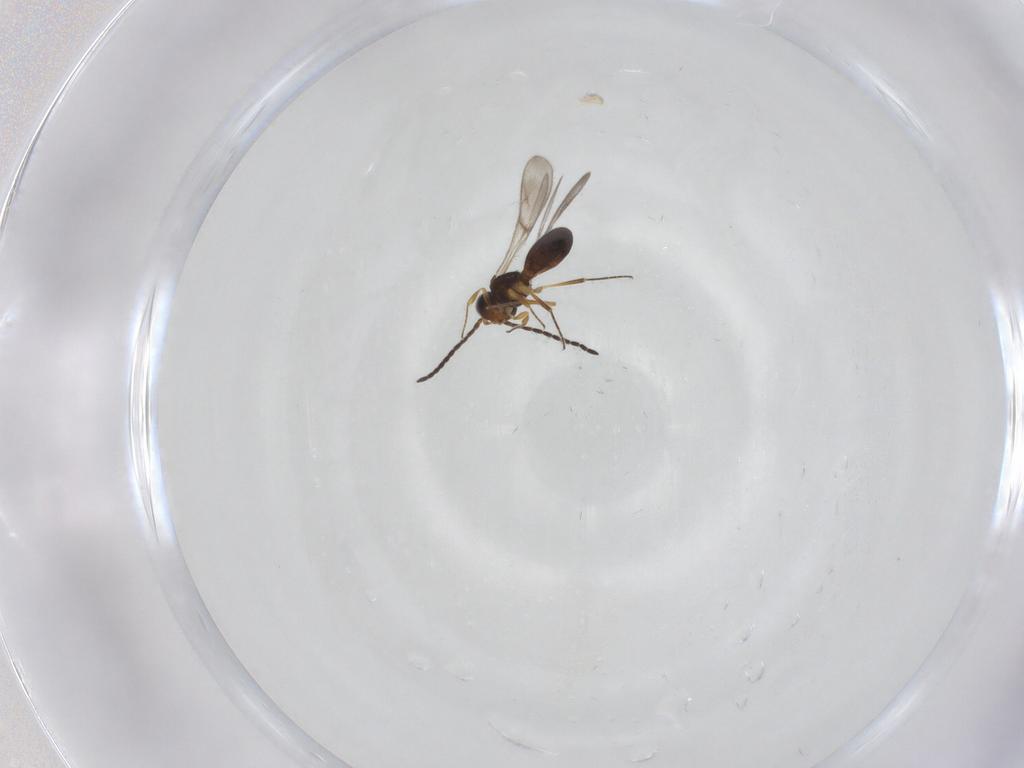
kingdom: Animalia
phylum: Arthropoda
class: Insecta
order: Hymenoptera
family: Scelionidae
